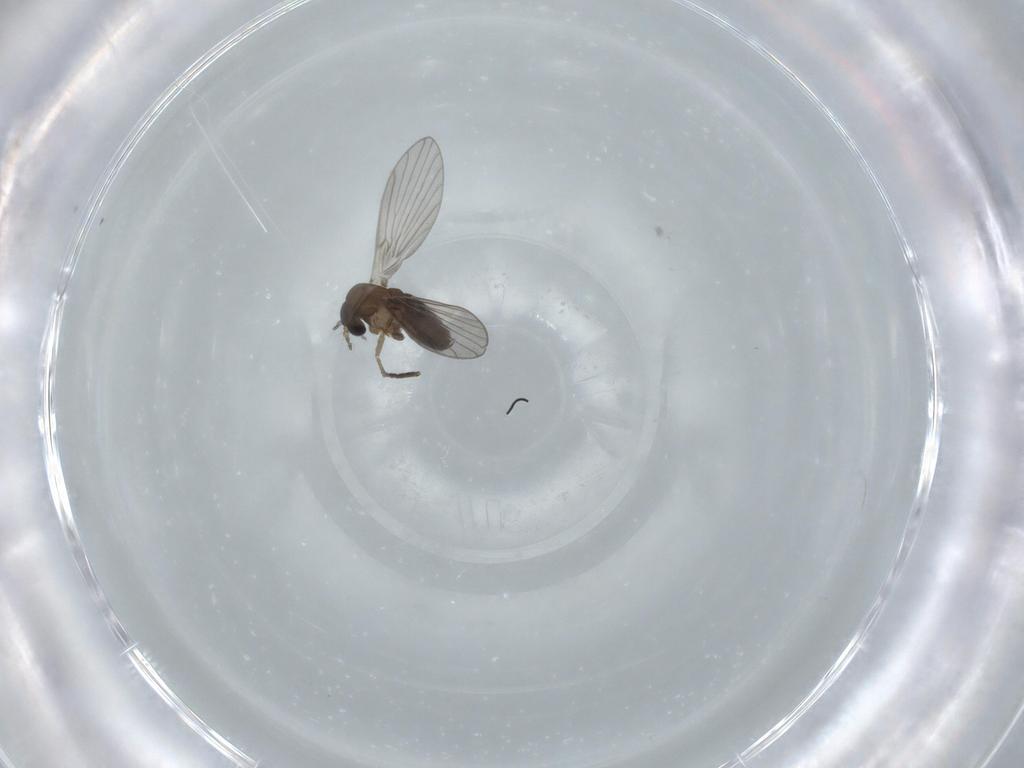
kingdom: Animalia
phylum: Arthropoda
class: Insecta
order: Diptera
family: Psychodidae
